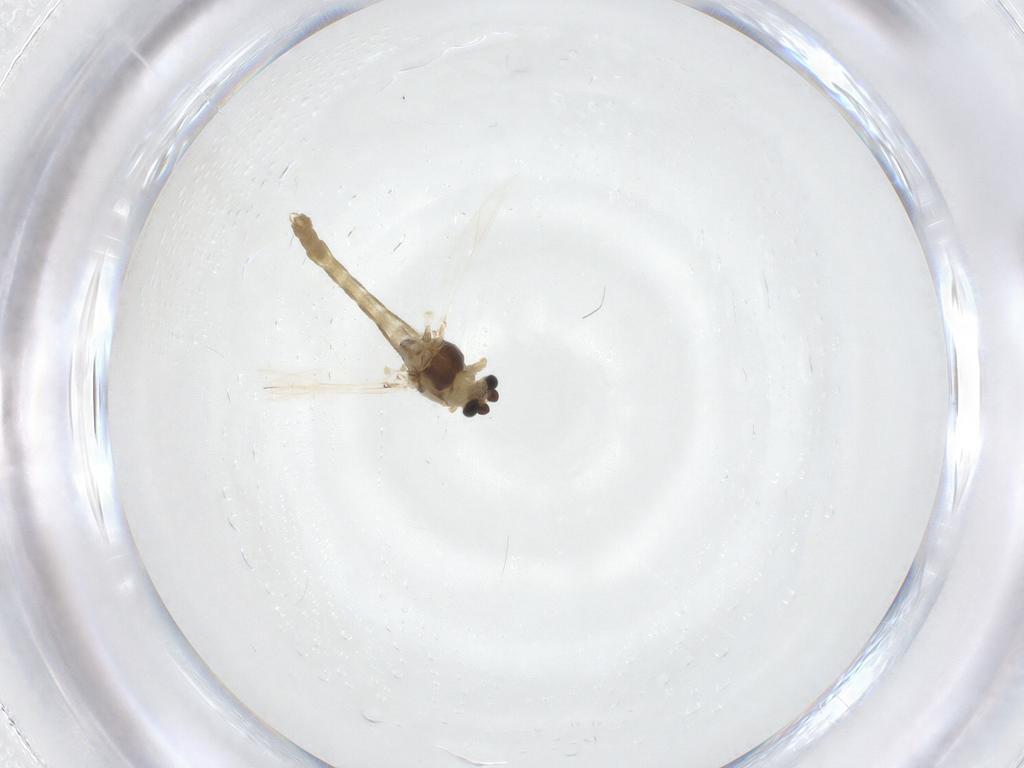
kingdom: Animalia
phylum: Arthropoda
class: Insecta
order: Diptera
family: Chironomidae
